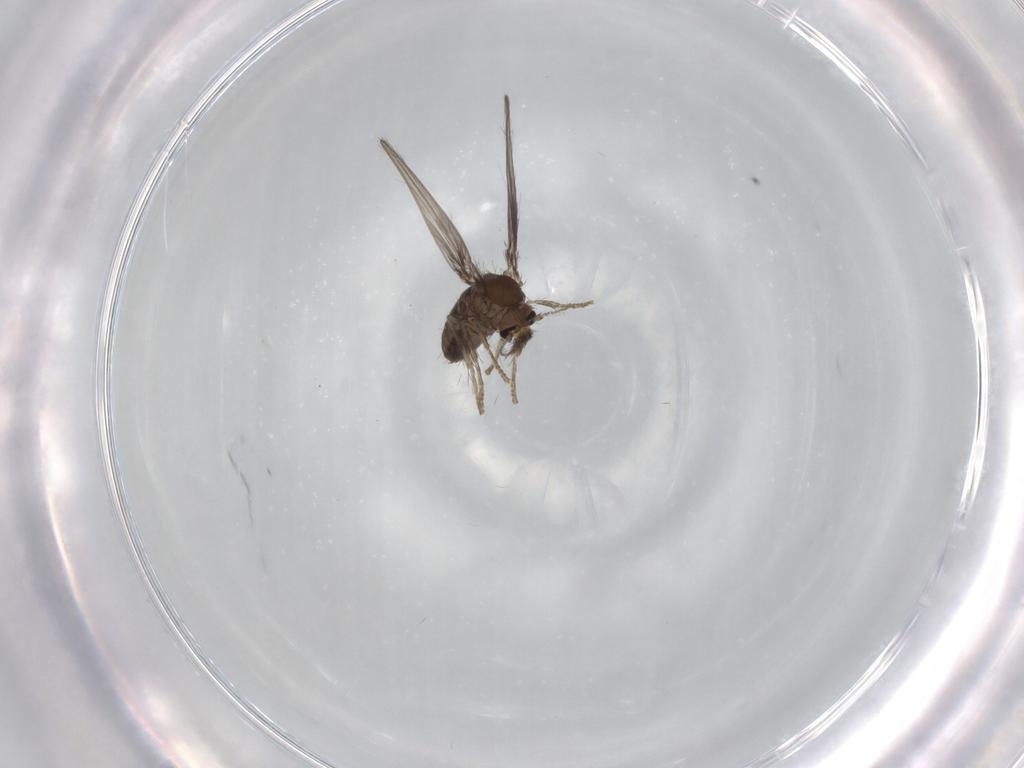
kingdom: Animalia
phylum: Arthropoda
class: Insecta
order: Diptera
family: Psychodidae
